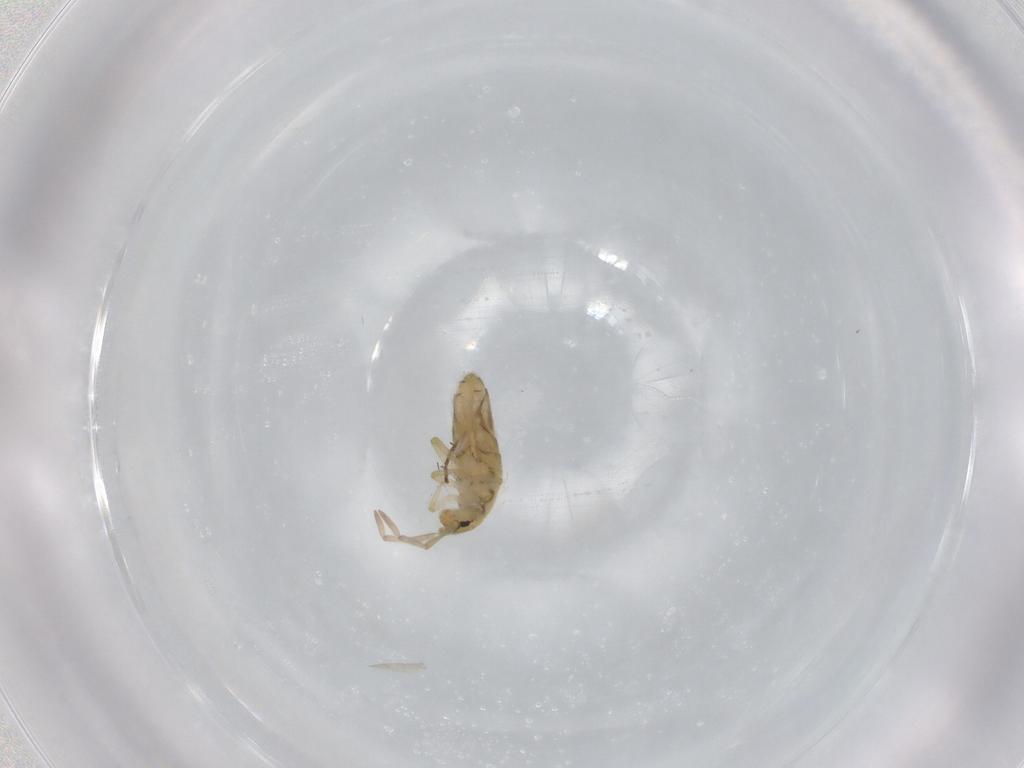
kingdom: Animalia
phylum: Arthropoda
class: Collembola
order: Entomobryomorpha
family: Entomobryidae
